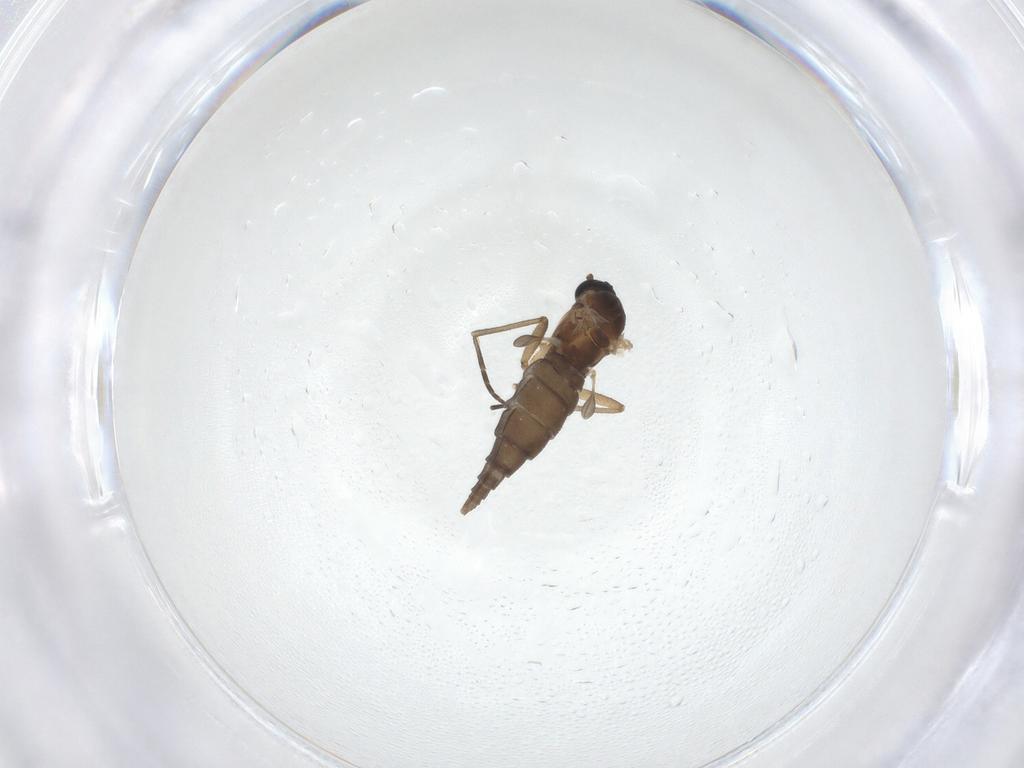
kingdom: Animalia
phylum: Arthropoda
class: Insecta
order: Diptera
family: Sciaridae
